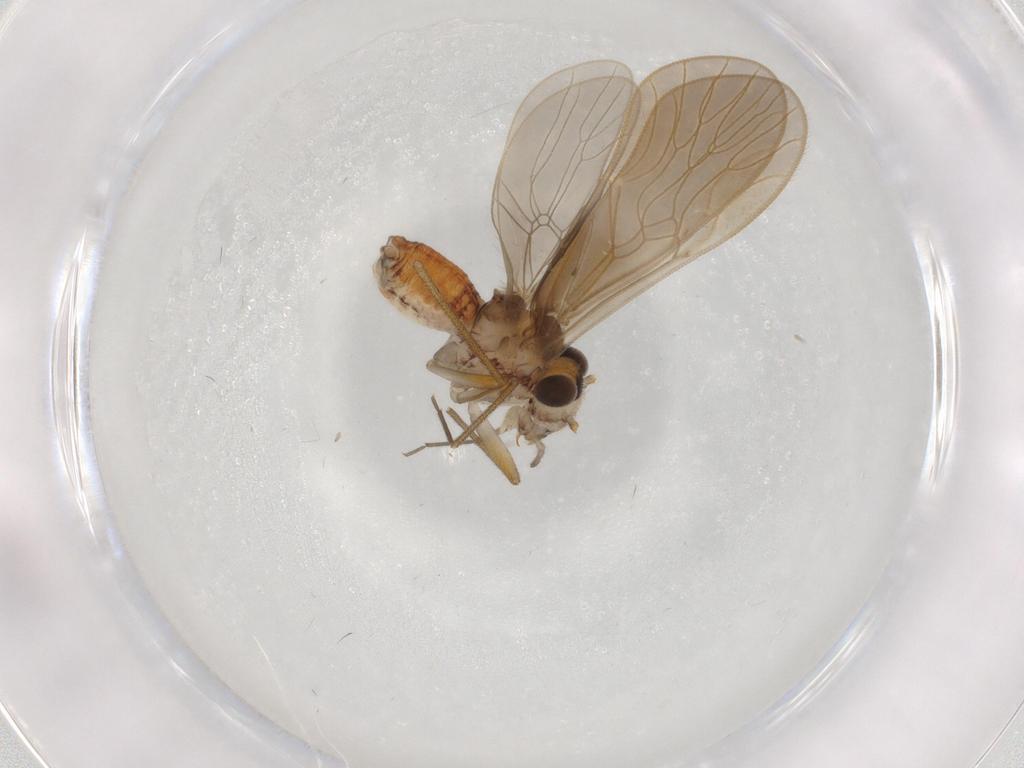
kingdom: Animalia
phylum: Arthropoda
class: Insecta
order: Psocodea
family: Mesopsocidae
